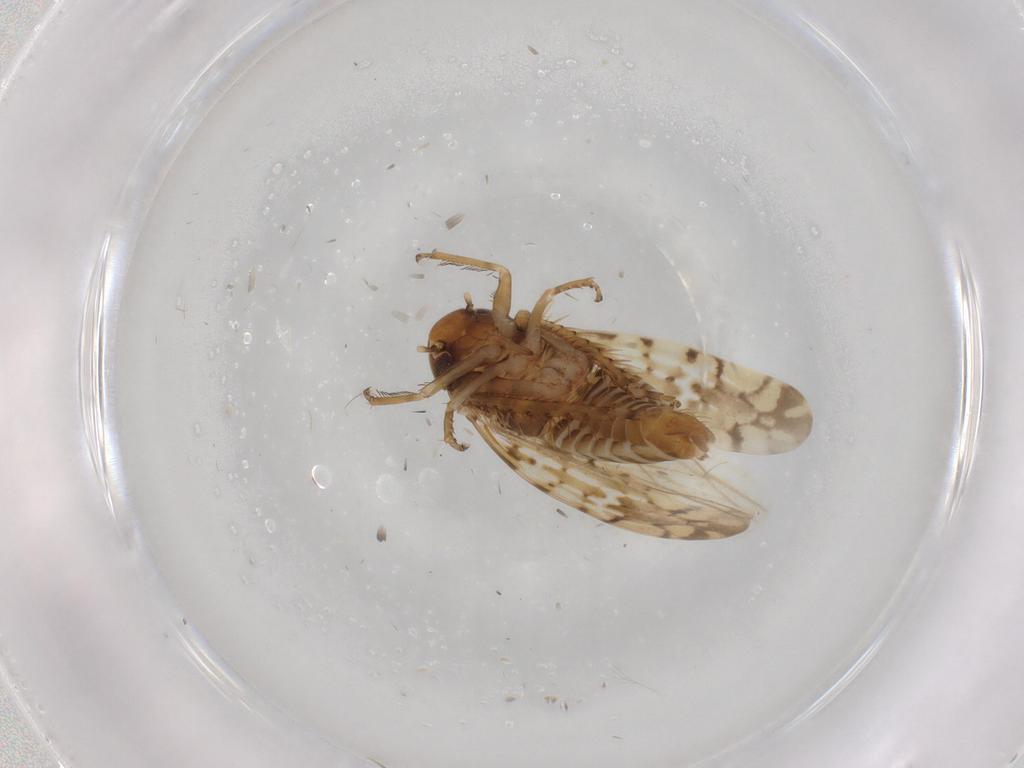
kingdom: Animalia
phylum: Arthropoda
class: Insecta
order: Hemiptera
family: Cicadellidae
